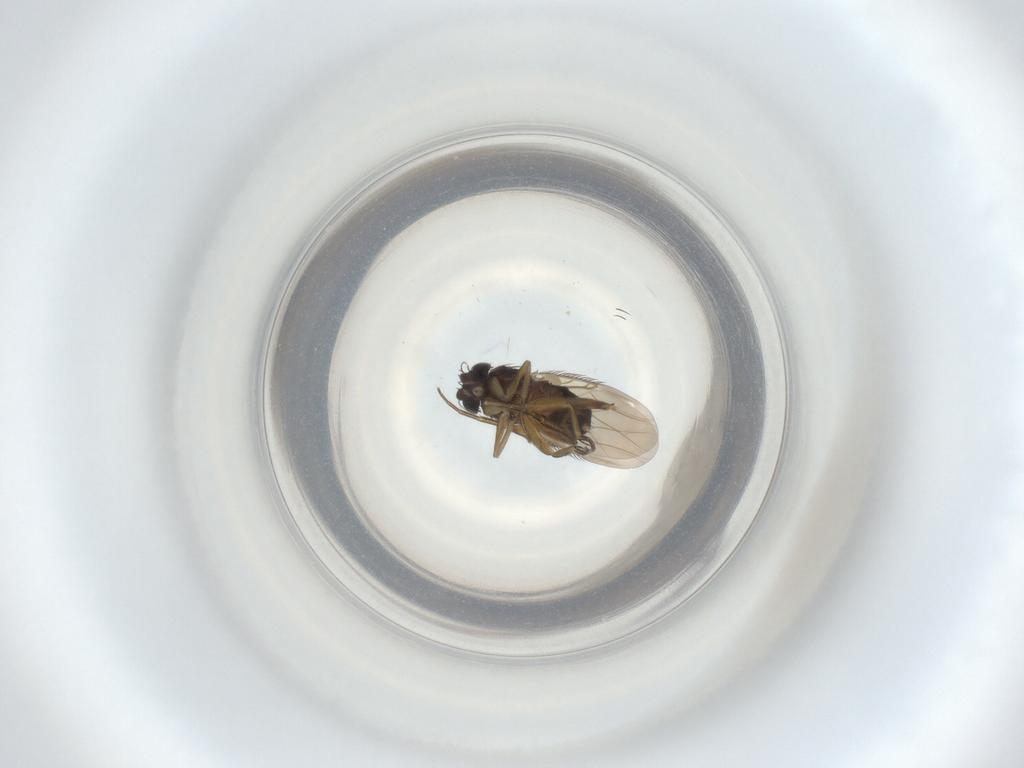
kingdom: Animalia
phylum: Arthropoda
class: Insecta
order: Diptera
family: Phoridae
